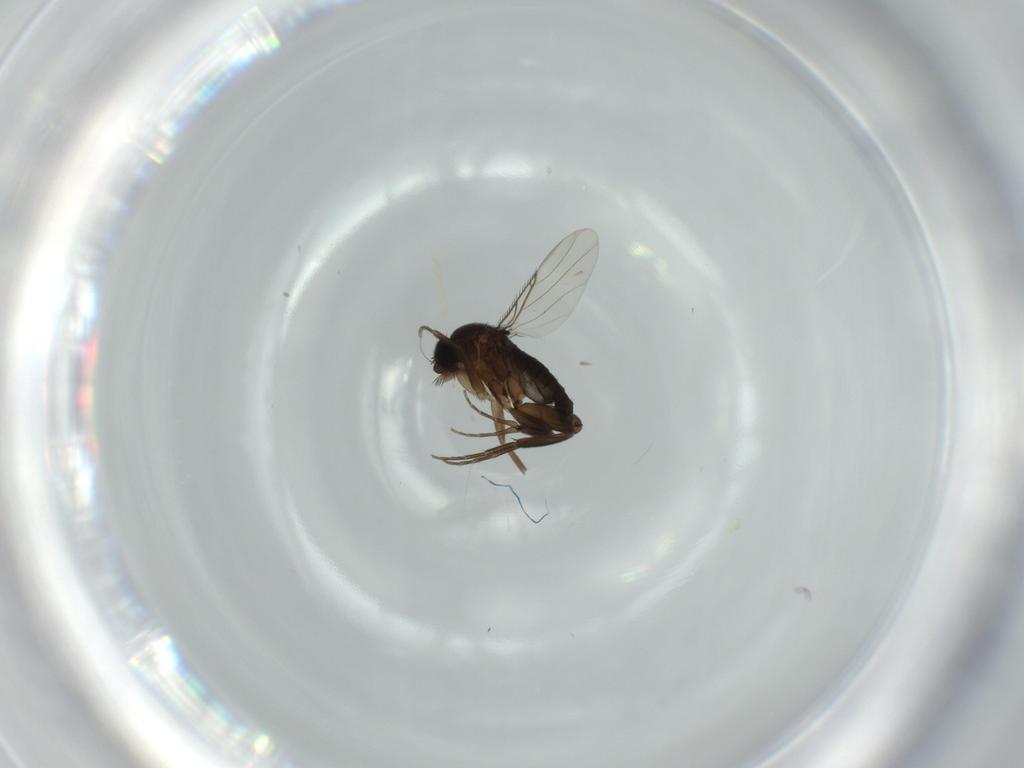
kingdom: Animalia
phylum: Arthropoda
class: Insecta
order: Diptera
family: Phoridae
